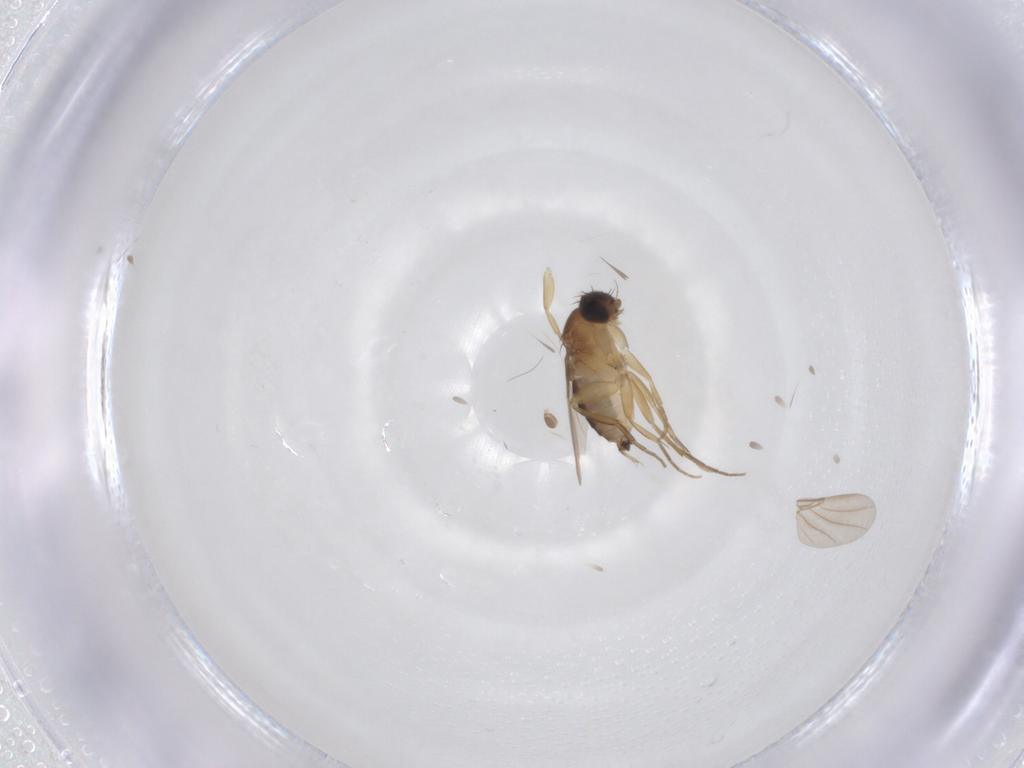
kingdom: Animalia
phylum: Arthropoda
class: Insecta
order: Diptera
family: Phoridae
